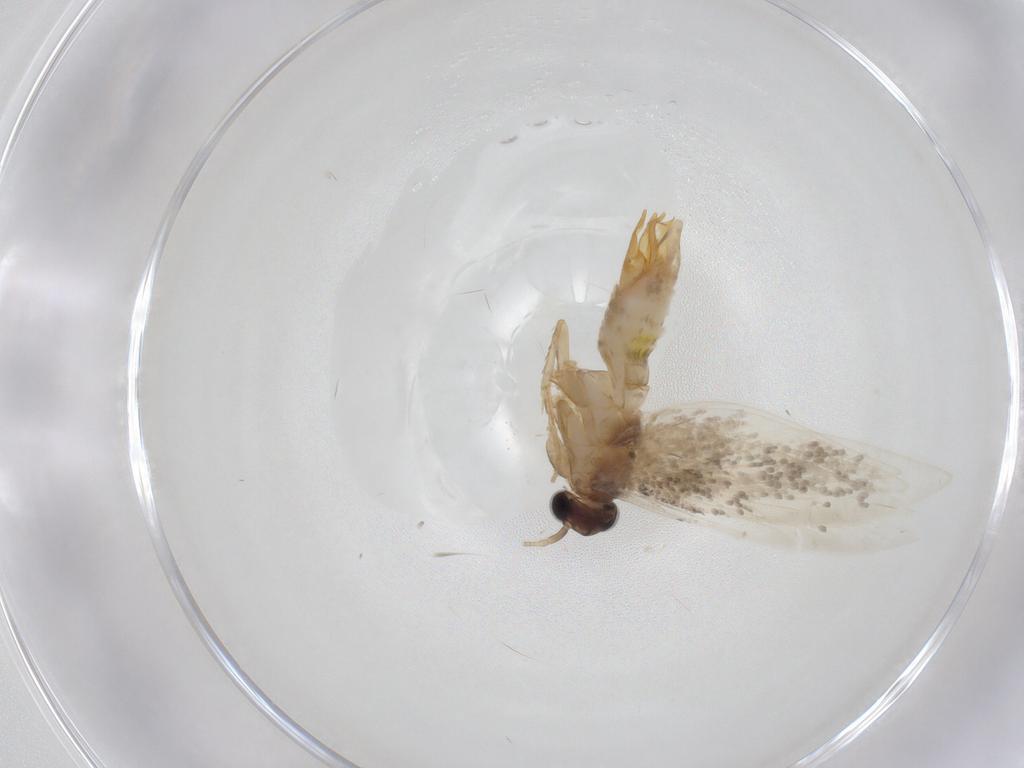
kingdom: Animalia
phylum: Arthropoda
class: Insecta
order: Lepidoptera
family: Tineidae
